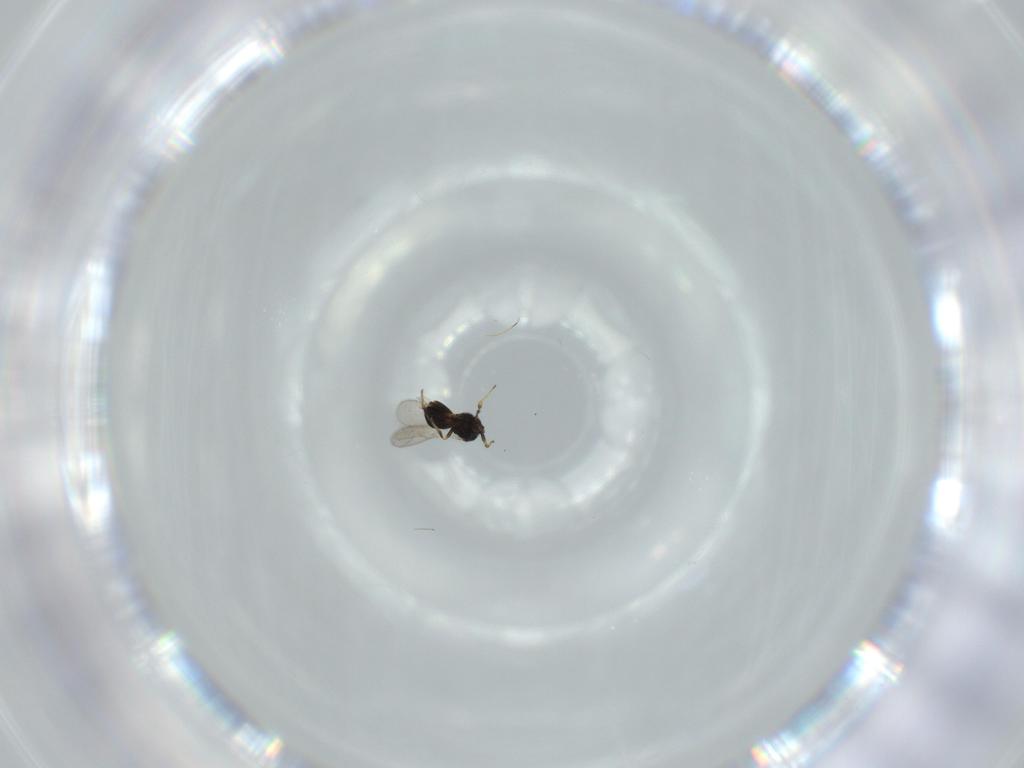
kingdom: Animalia
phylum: Arthropoda
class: Insecta
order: Hymenoptera
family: Scelionidae
